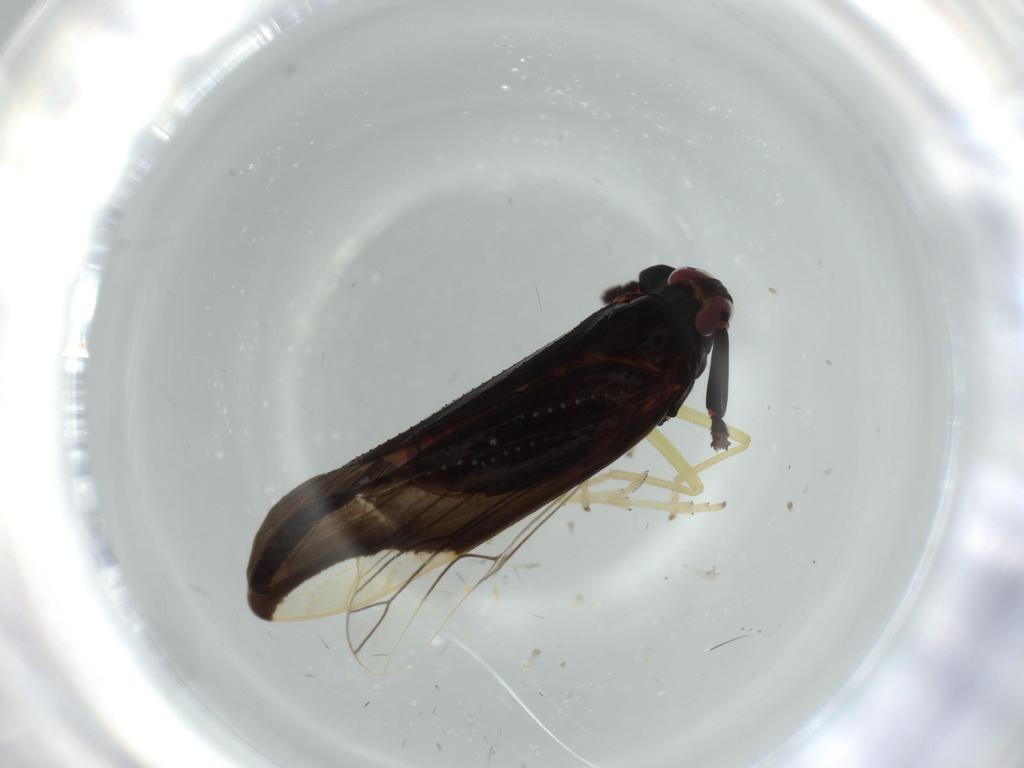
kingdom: Animalia
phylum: Arthropoda
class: Insecta
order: Hemiptera
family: Delphacidae
